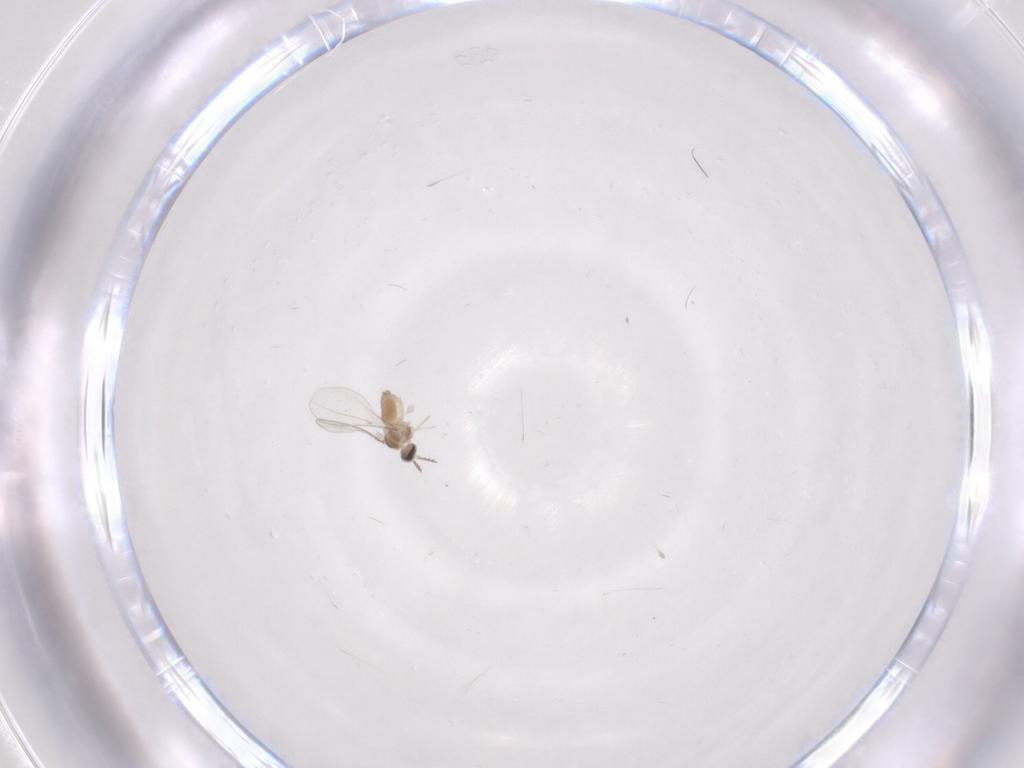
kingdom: Animalia
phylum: Arthropoda
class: Insecta
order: Diptera
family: Cecidomyiidae
